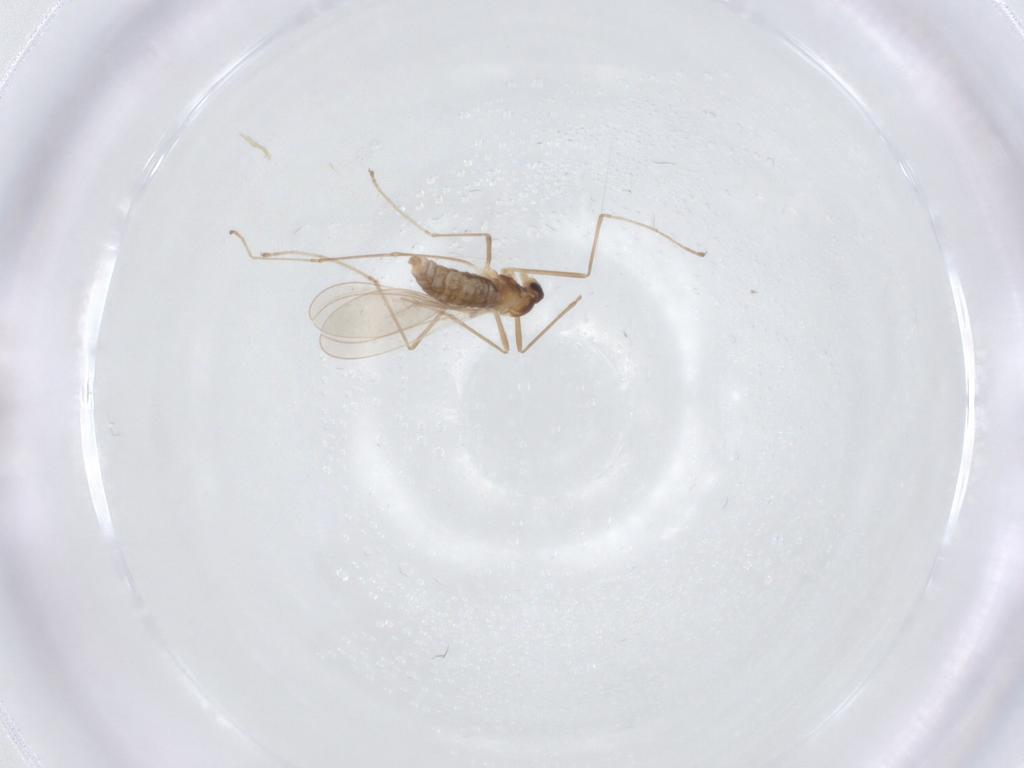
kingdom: Animalia
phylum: Arthropoda
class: Insecta
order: Diptera
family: Cecidomyiidae
